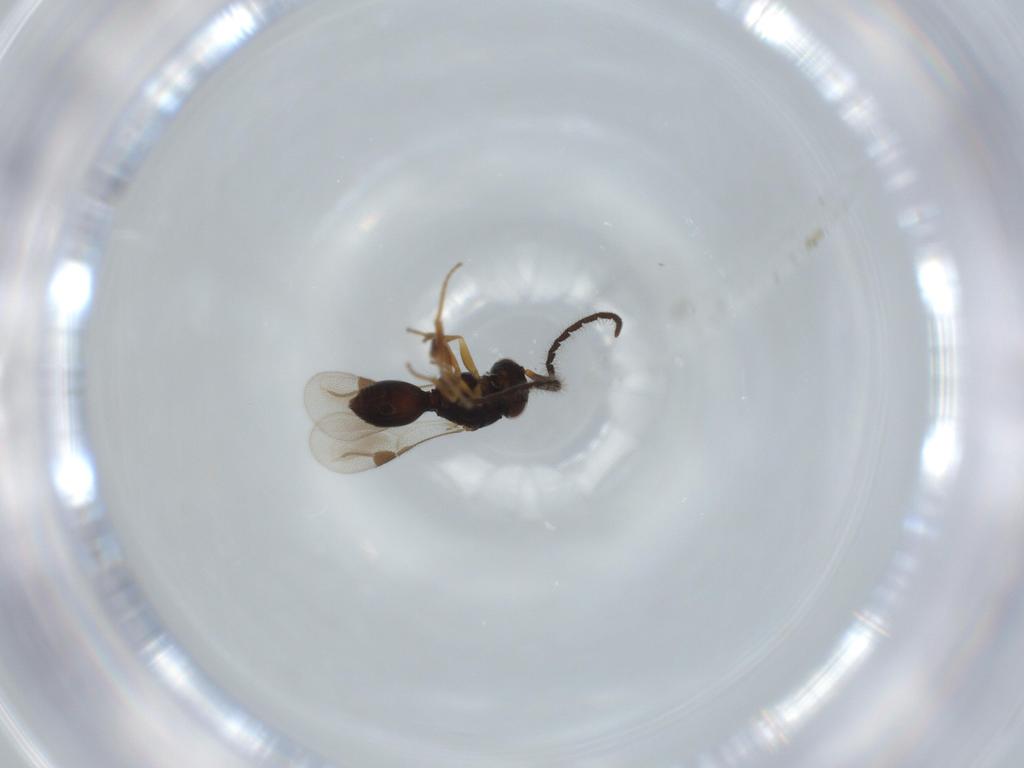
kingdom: Animalia
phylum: Arthropoda
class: Insecta
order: Hymenoptera
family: Megaspilidae
